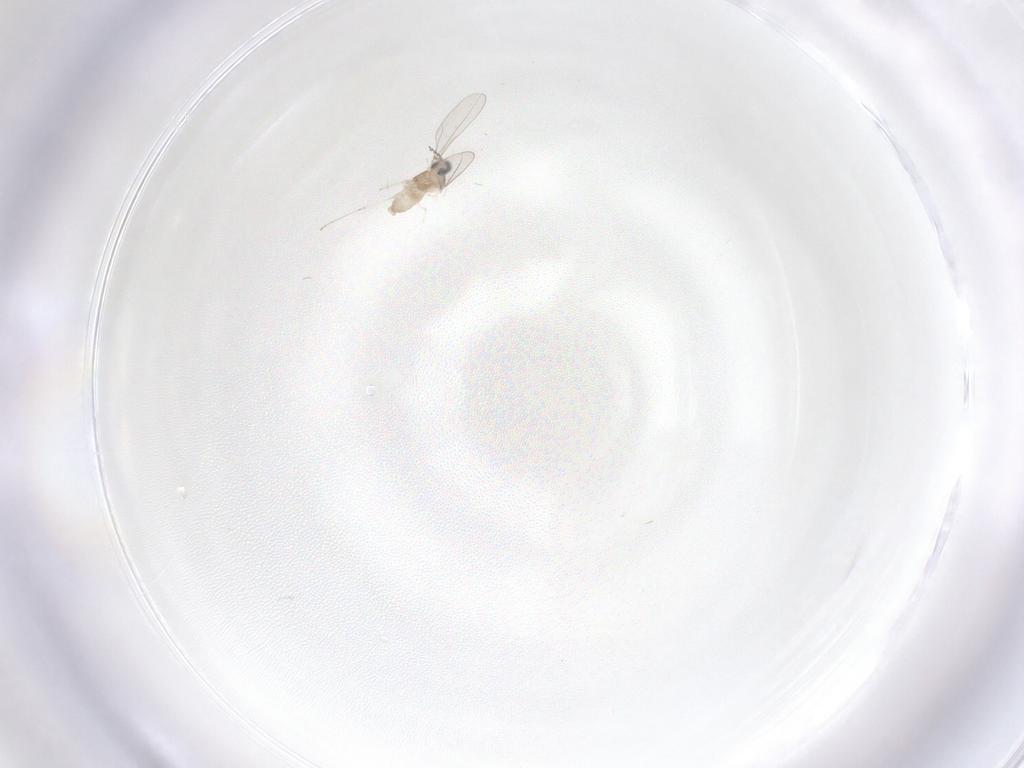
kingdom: Animalia
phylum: Arthropoda
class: Insecta
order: Diptera
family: Cecidomyiidae
